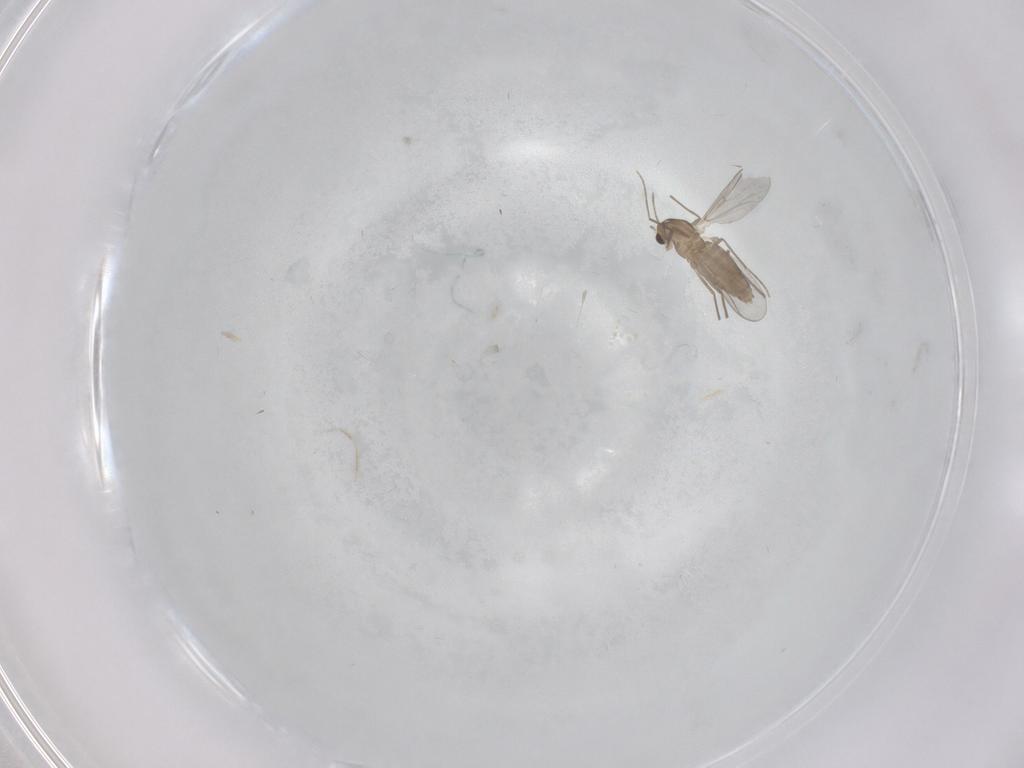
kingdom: Animalia
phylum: Arthropoda
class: Insecta
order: Diptera
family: Chironomidae
